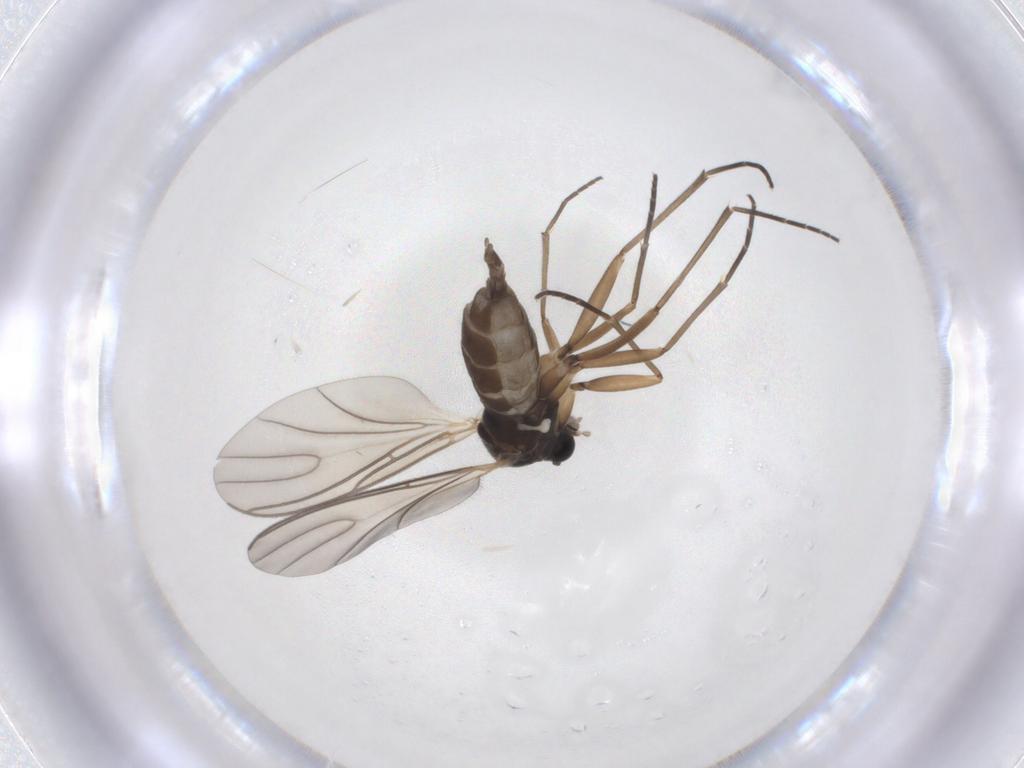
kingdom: Animalia
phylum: Arthropoda
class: Insecta
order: Diptera
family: Sciaridae
